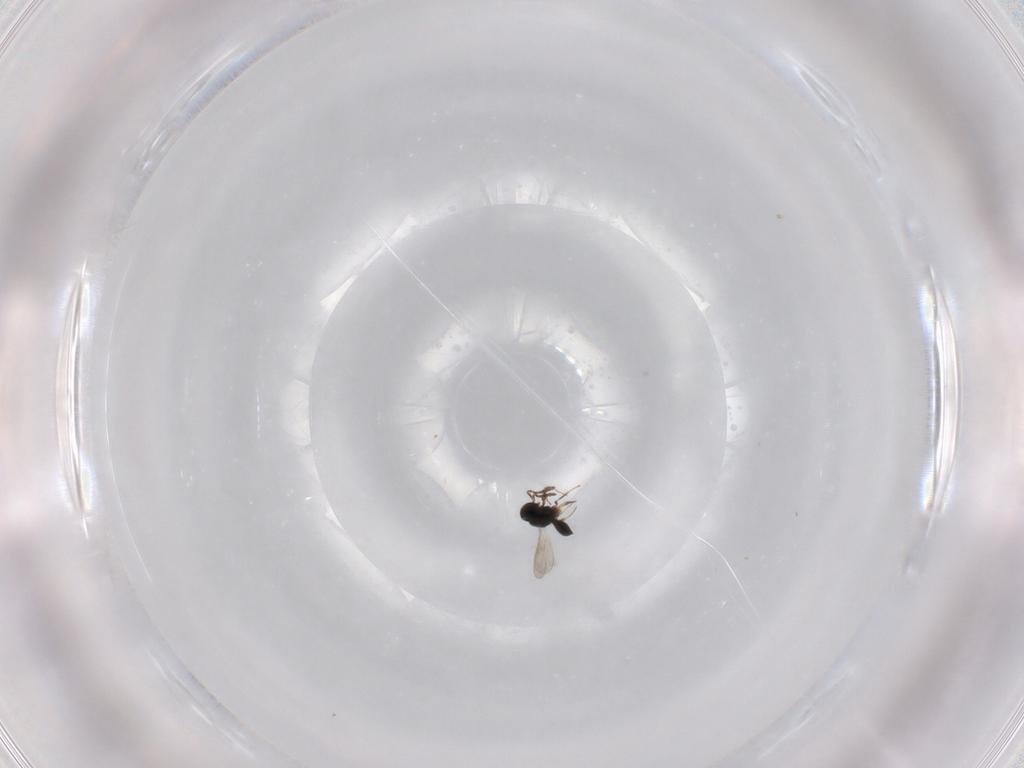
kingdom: Animalia
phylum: Arthropoda
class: Insecta
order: Hymenoptera
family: Scelionidae
